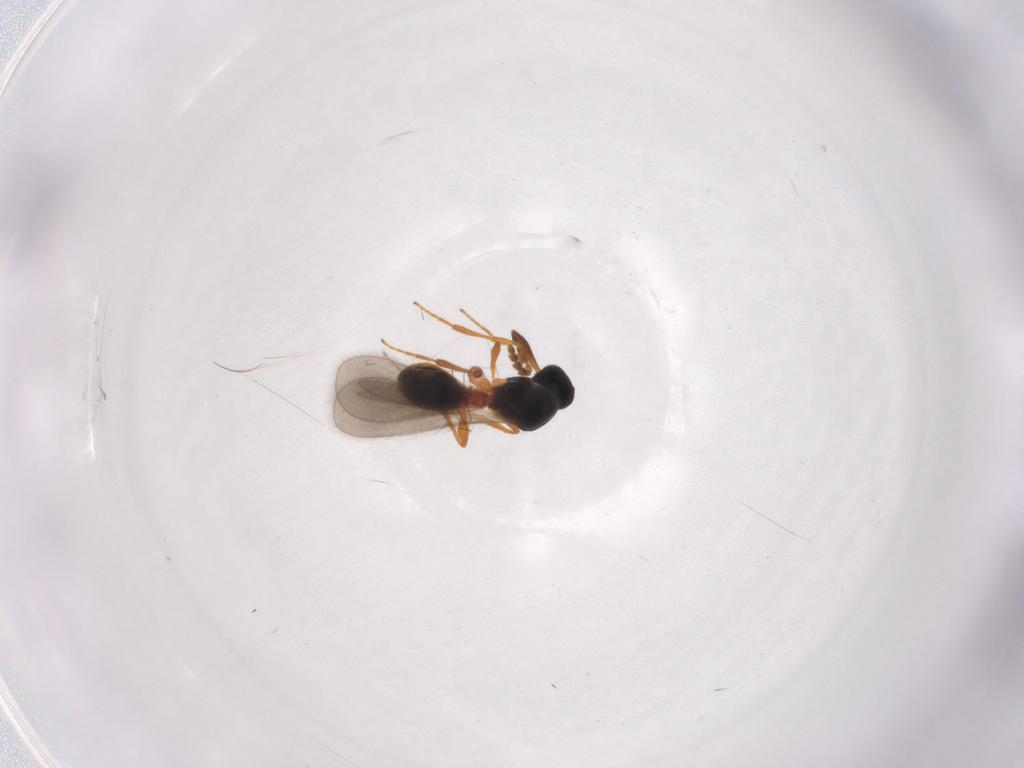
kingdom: Animalia
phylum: Arthropoda
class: Insecta
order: Hymenoptera
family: Platygastridae
